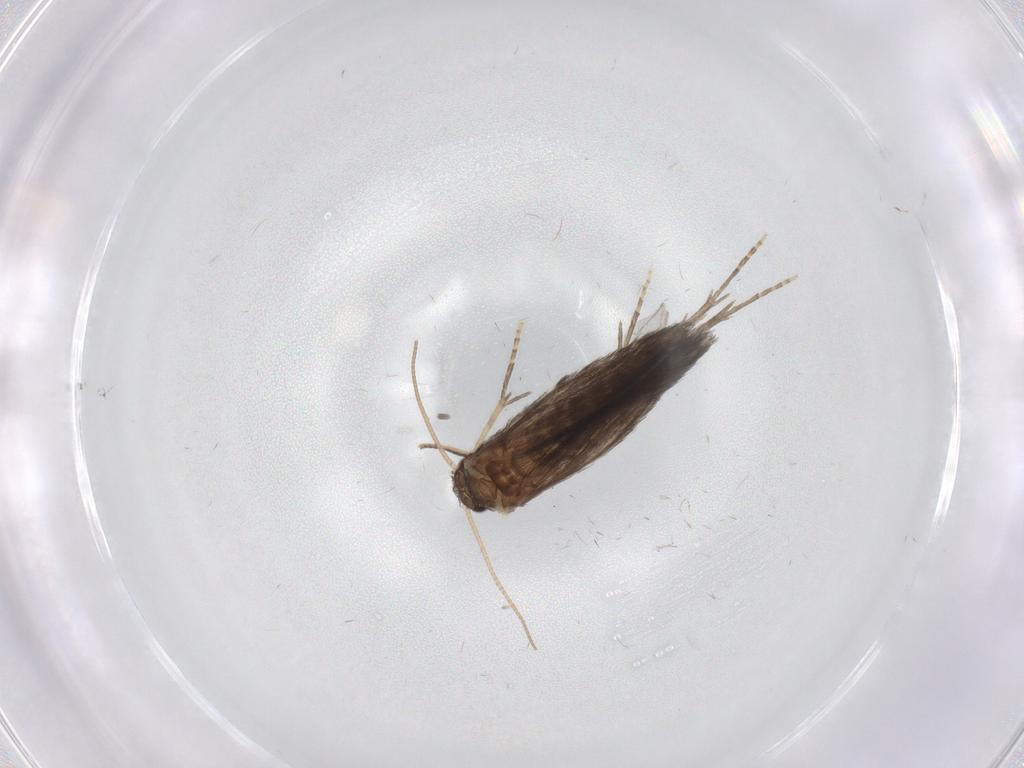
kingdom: Animalia
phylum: Arthropoda
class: Insecta
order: Trichoptera
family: Hydroptilidae
